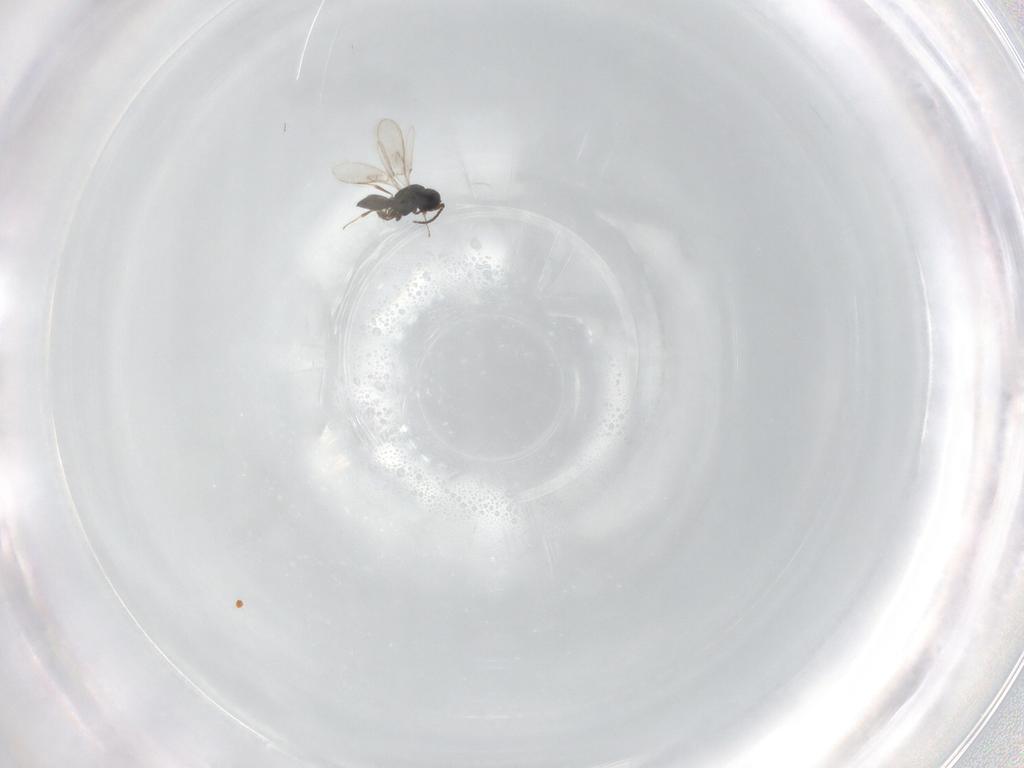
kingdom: Animalia
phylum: Arthropoda
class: Insecta
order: Hymenoptera
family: Scelionidae
